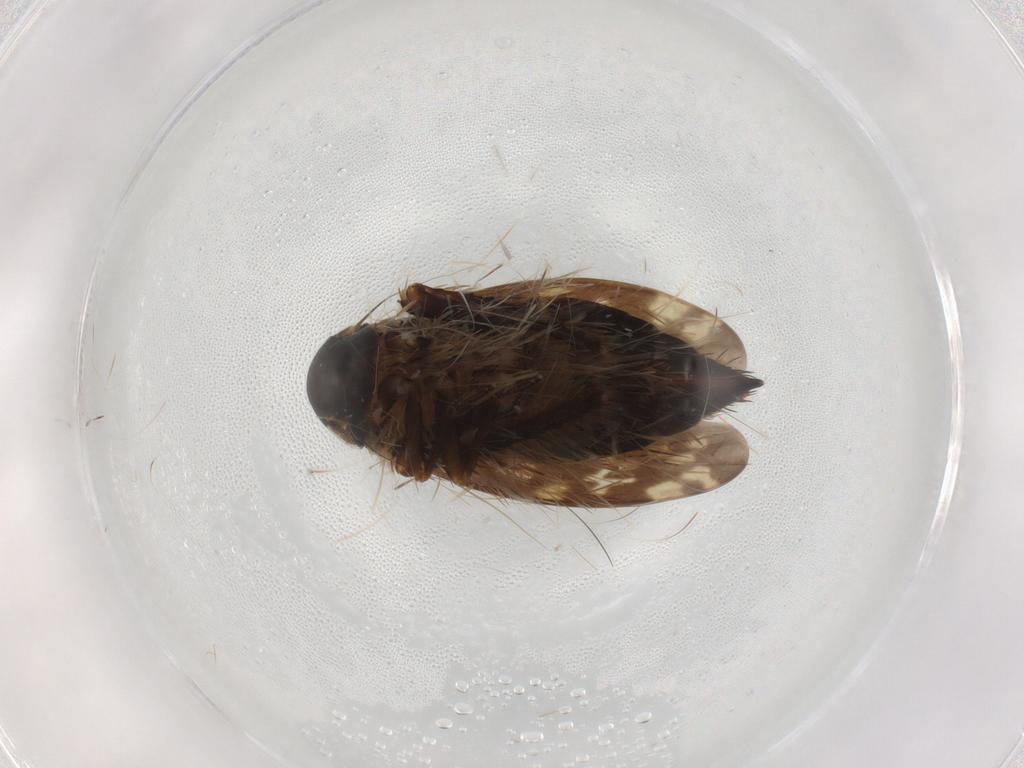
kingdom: Animalia
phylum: Arthropoda
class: Insecta
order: Hemiptera
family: Cicadellidae
